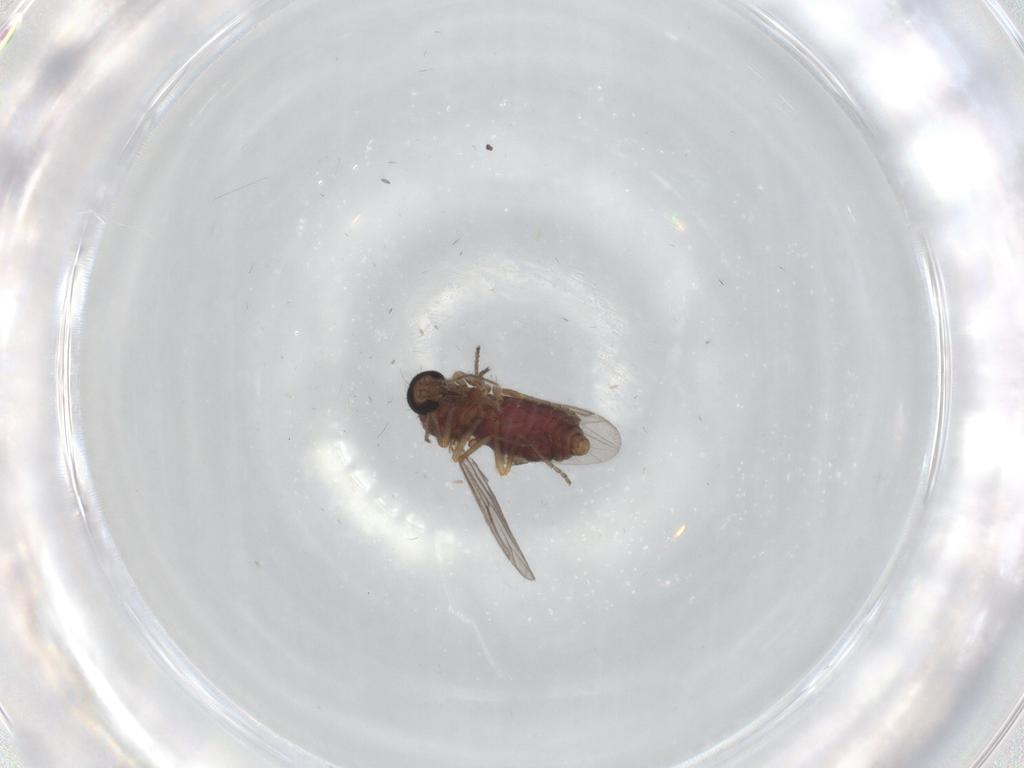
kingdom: Animalia
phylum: Arthropoda
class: Insecta
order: Diptera
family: Ceratopogonidae
